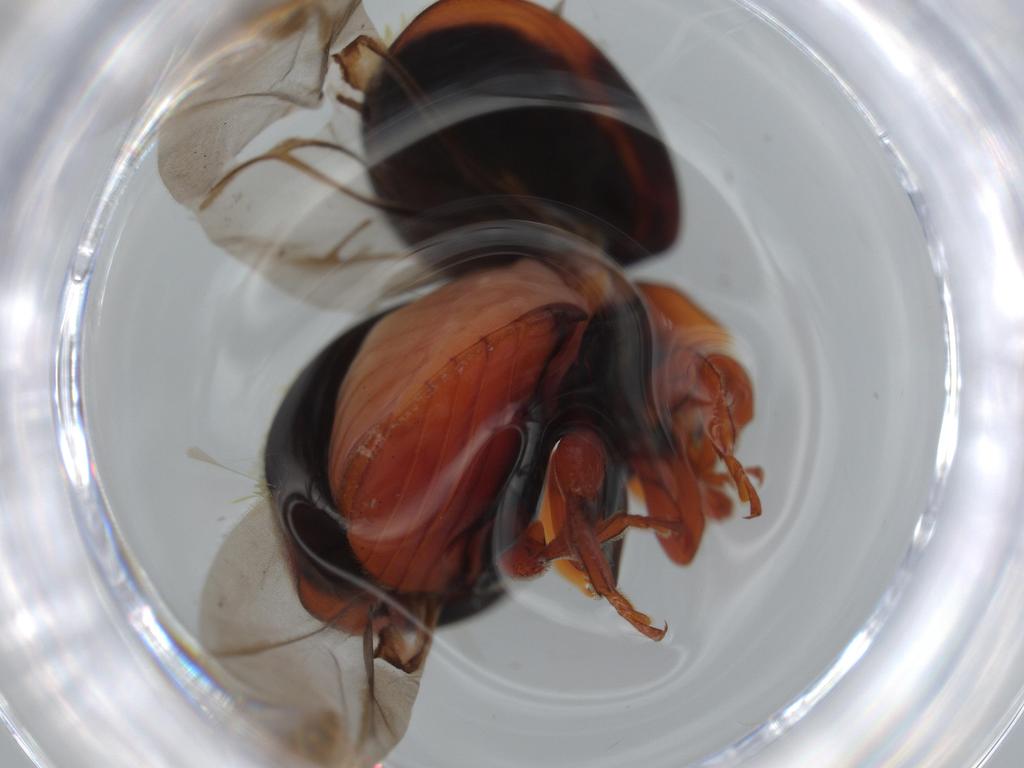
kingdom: Animalia
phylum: Arthropoda
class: Insecta
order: Coleoptera
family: Coccinellidae
